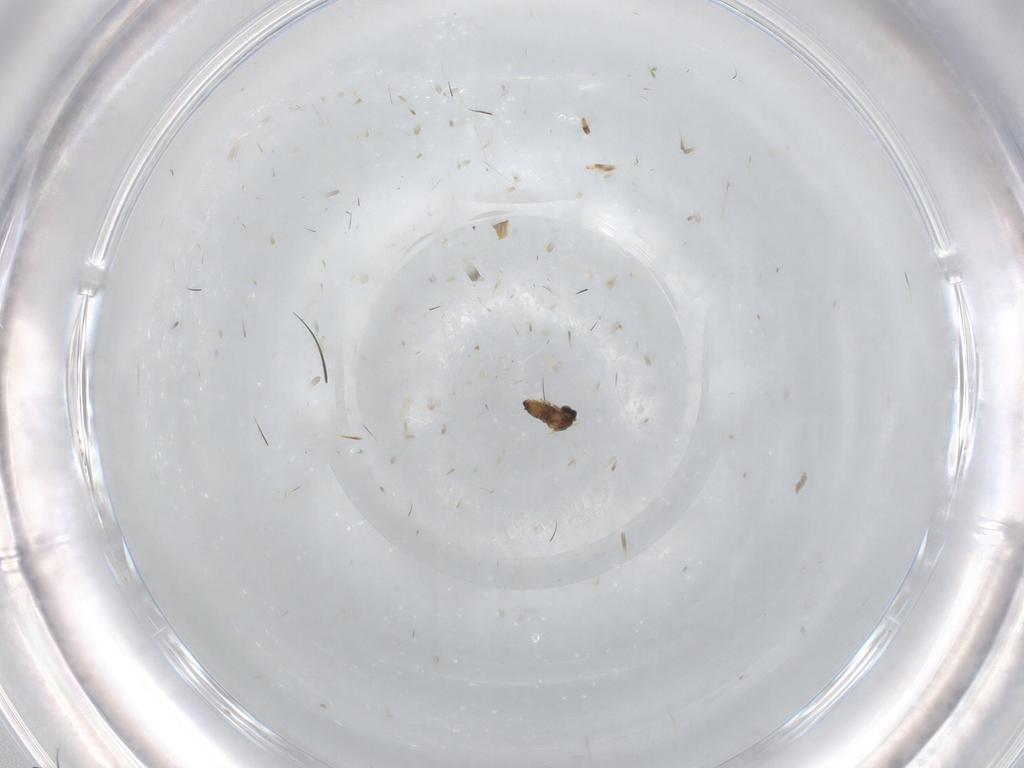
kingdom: Animalia
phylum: Arthropoda
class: Insecta
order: Diptera
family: Cecidomyiidae
